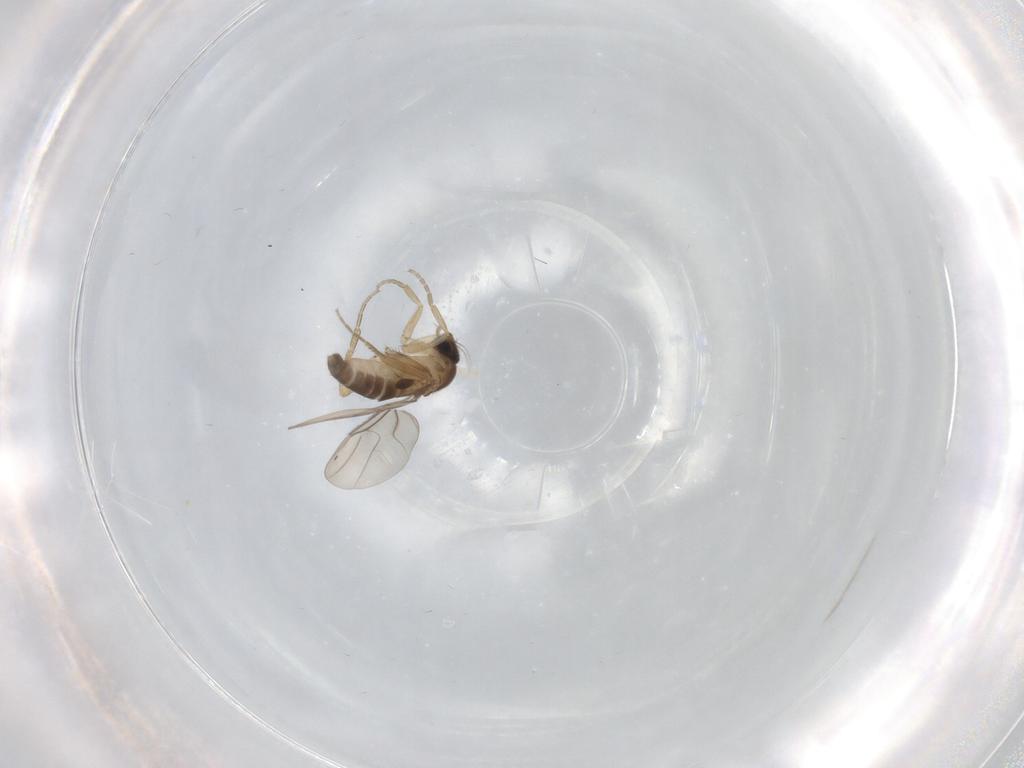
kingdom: Animalia
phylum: Arthropoda
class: Insecta
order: Diptera
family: Phoridae
